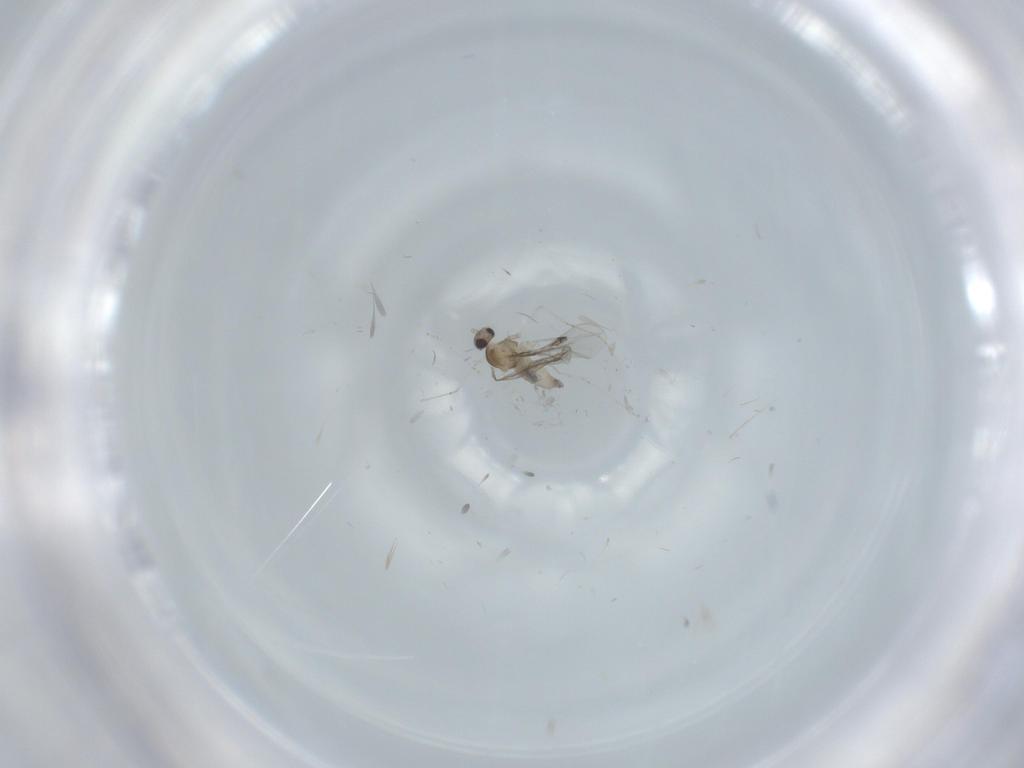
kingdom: Animalia
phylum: Arthropoda
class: Insecta
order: Diptera
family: Cecidomyiidae
